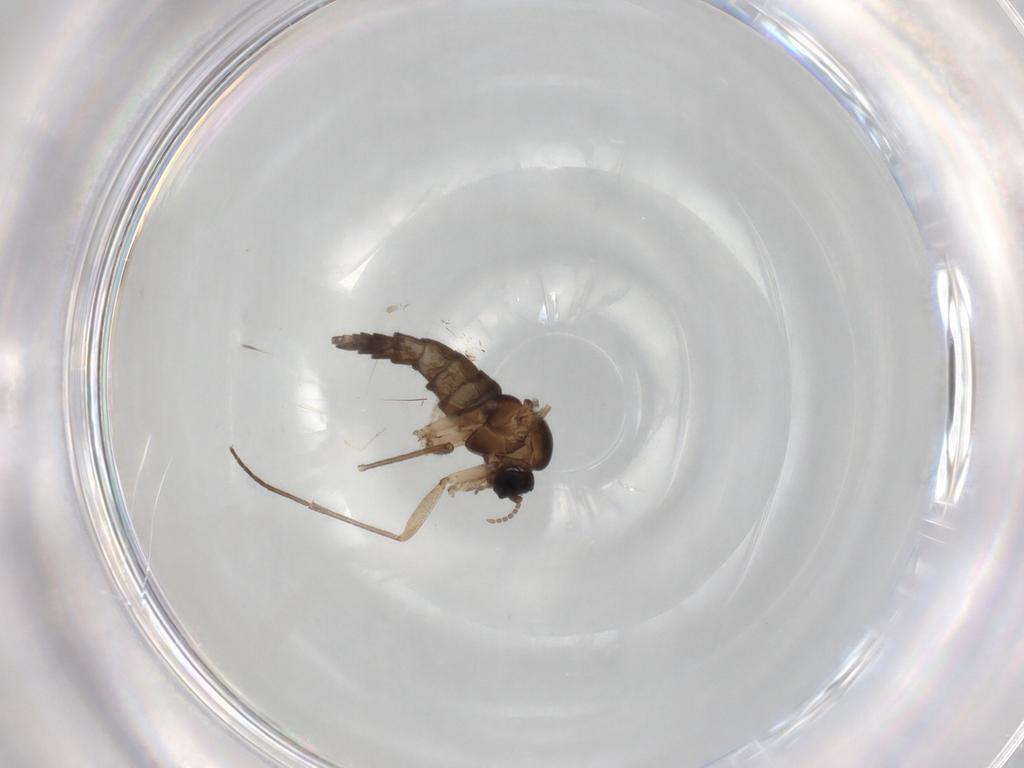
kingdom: Animalia
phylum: Arthropoda
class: Insecta
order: Diptera
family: Sciaridae
